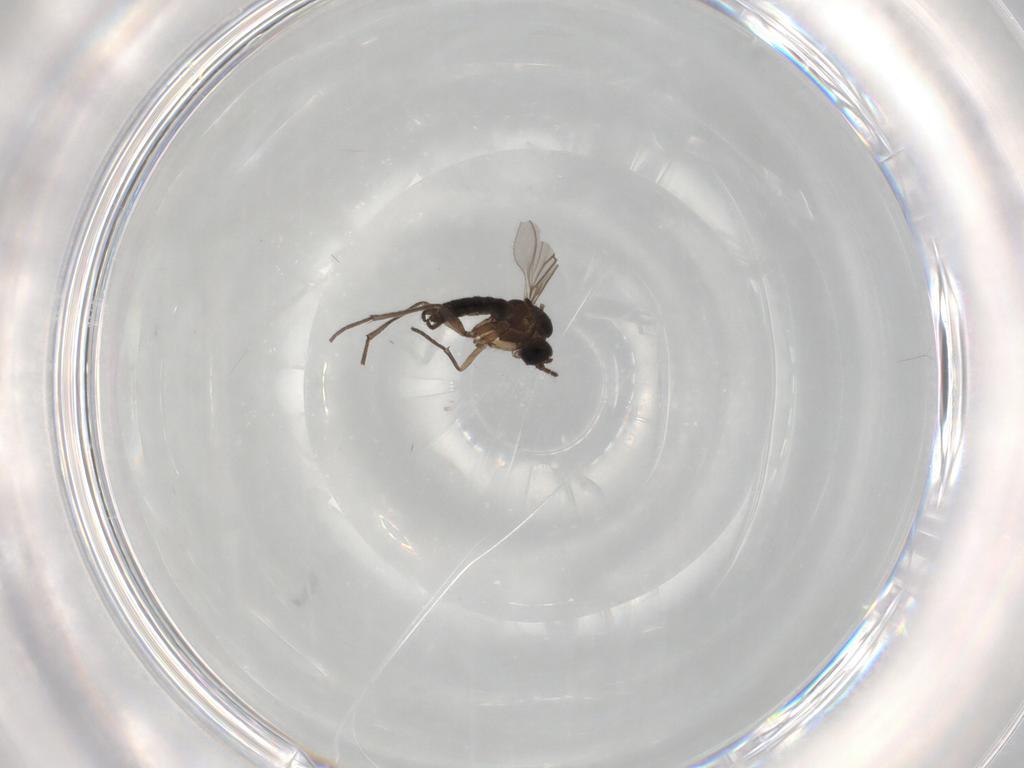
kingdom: Animalia
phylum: Arthropoda
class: Insecta
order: Diptera
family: Sciaridae
